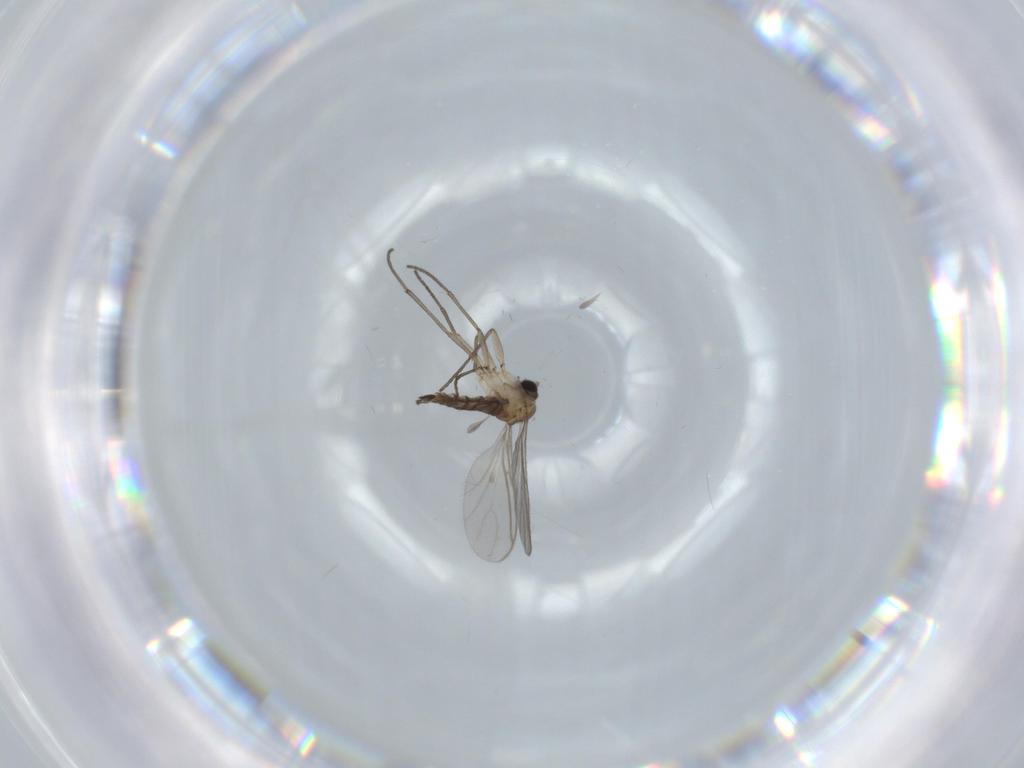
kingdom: Animalia
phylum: Arthropoda
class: Insecta
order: Diptera
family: Sciaridae
